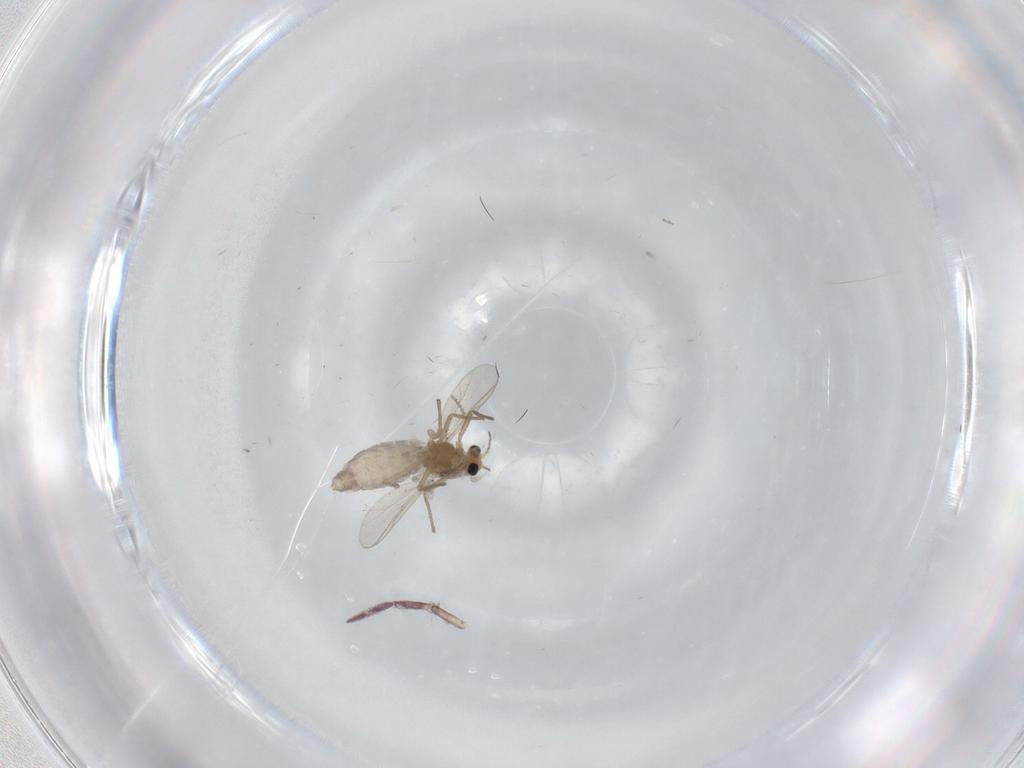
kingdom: Animalia
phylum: Arthropoda
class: Insecta
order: Diptera
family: Chironomidae
